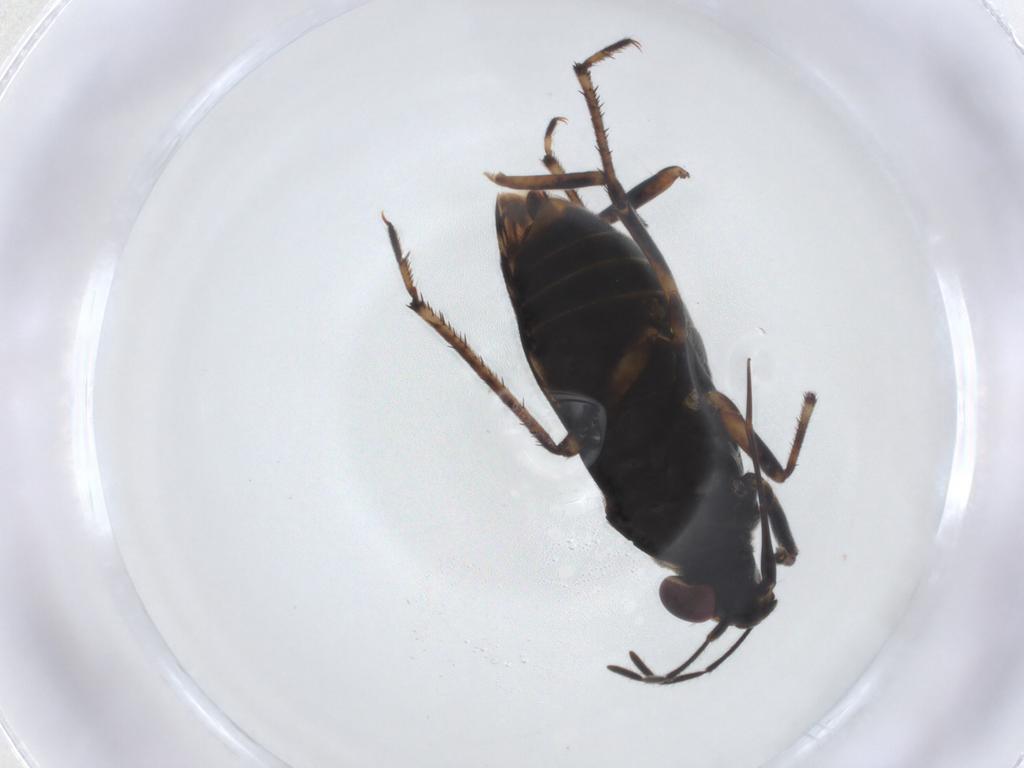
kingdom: Animalia
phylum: Arthropoda
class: Insecta
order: Hemiptera
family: Saldidae
